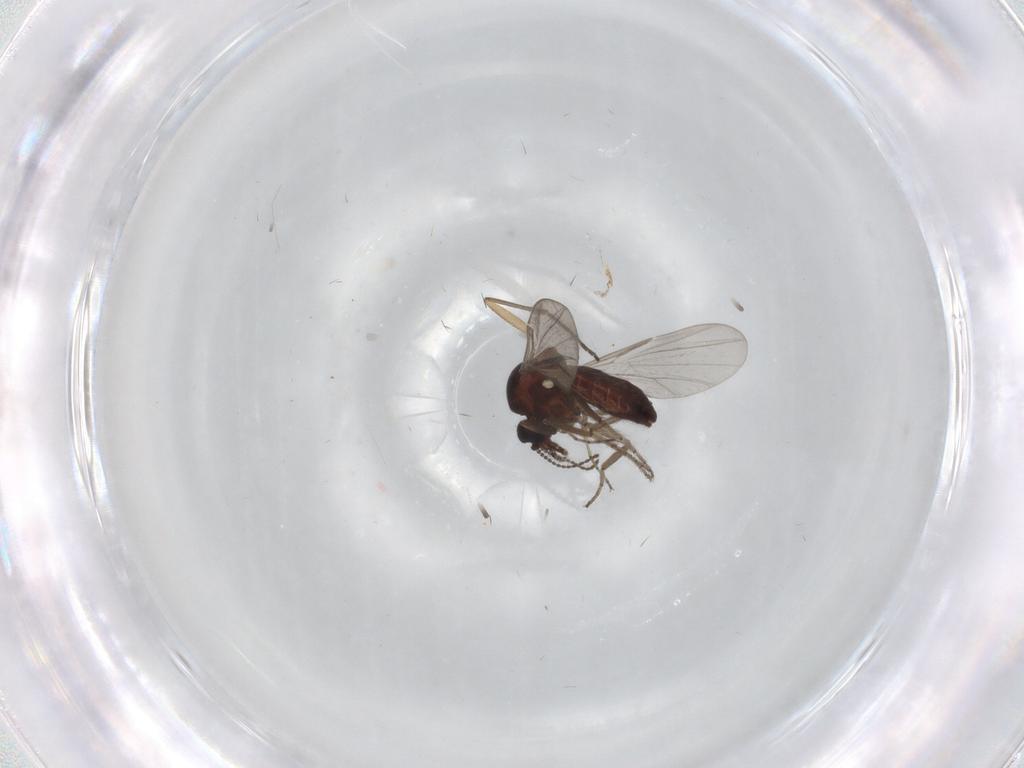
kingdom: Animalia
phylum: Arthropoda
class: Insecta
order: Diptera
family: Ceratopogonidae
